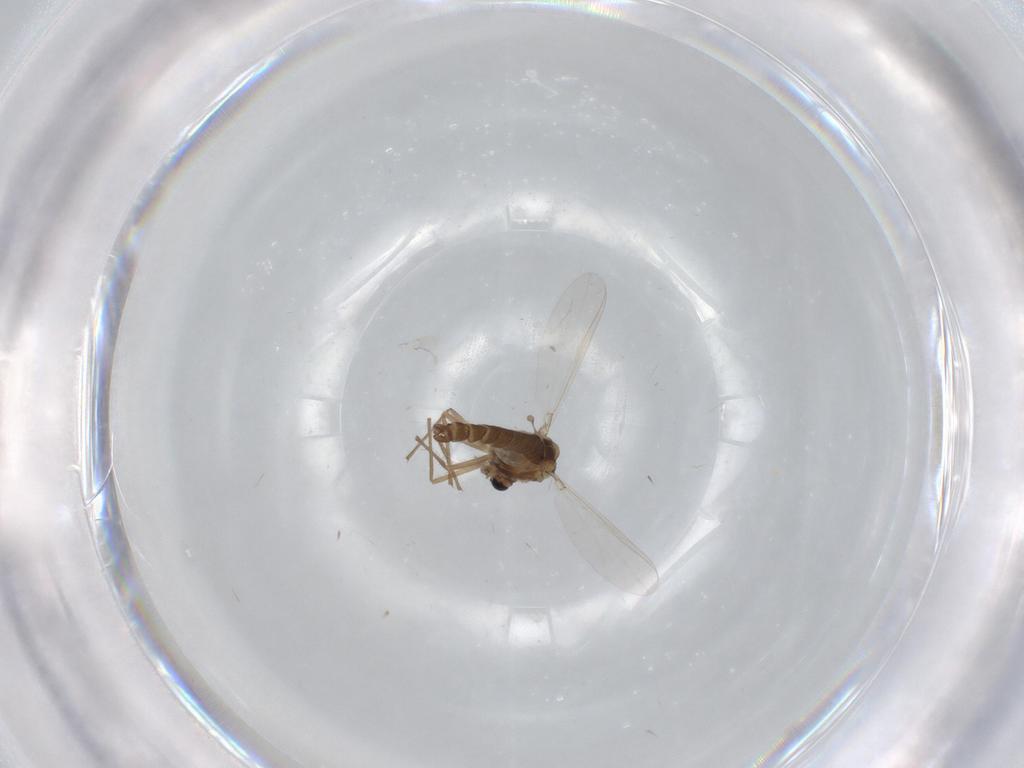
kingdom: Animalia
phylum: Arthropoda
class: Insecta
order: Diptera
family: Chironomidae
